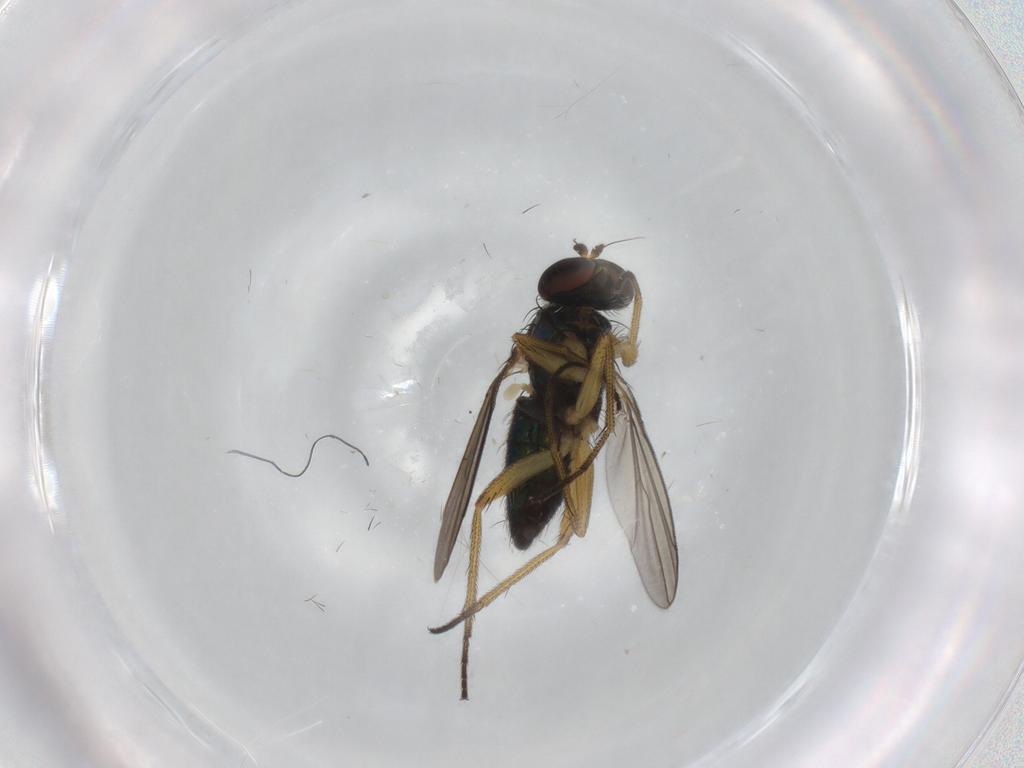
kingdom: Animalia
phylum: Arthropoda
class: Insecta
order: Diptera
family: Dolichopodidae
